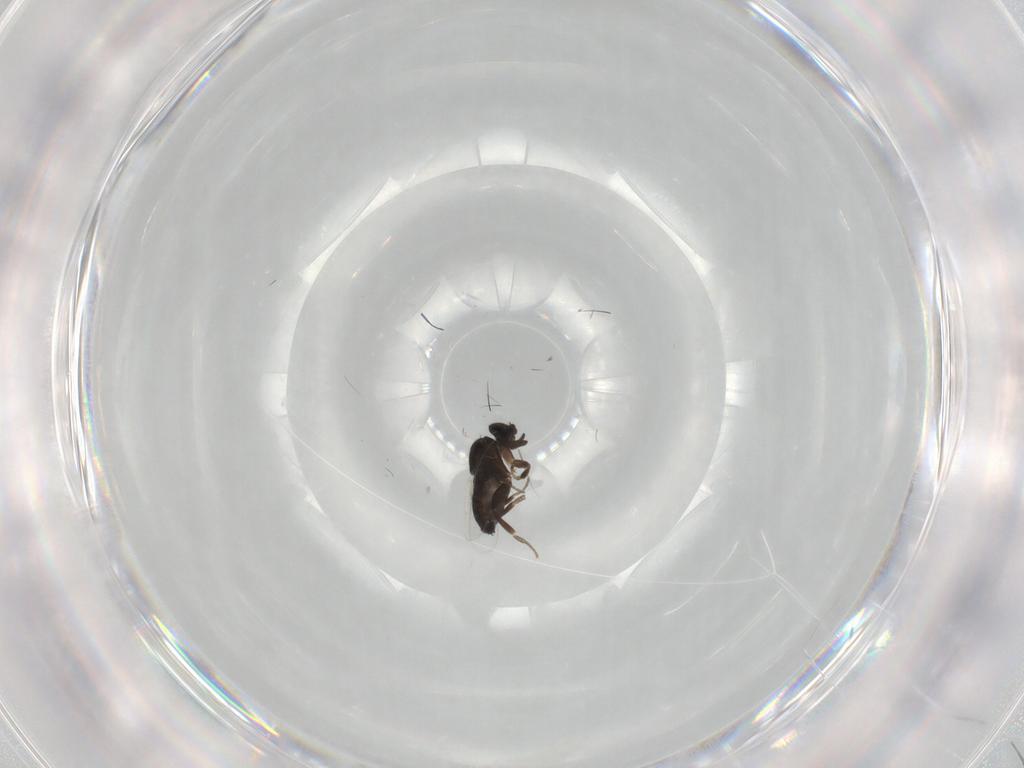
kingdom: Animalia
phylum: Arthropoda
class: Insecta
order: Diptera
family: Phoridae
